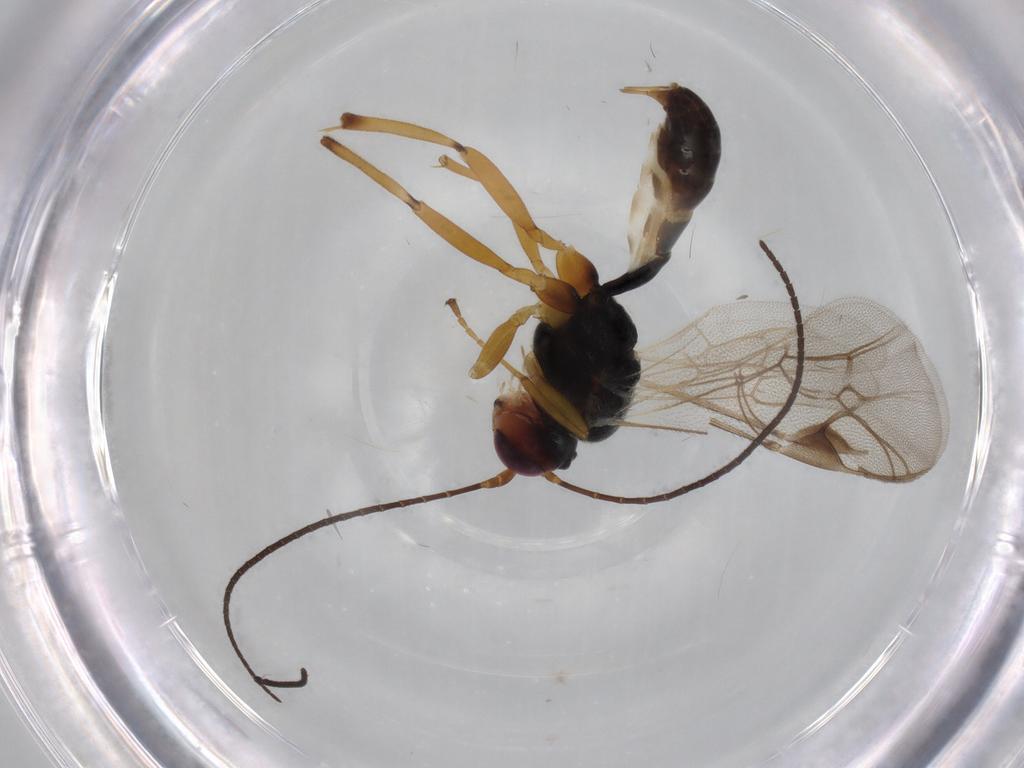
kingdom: Animalia
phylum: Arthropoda
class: Insecta
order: Hymenoptera
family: Ichneumonidae
